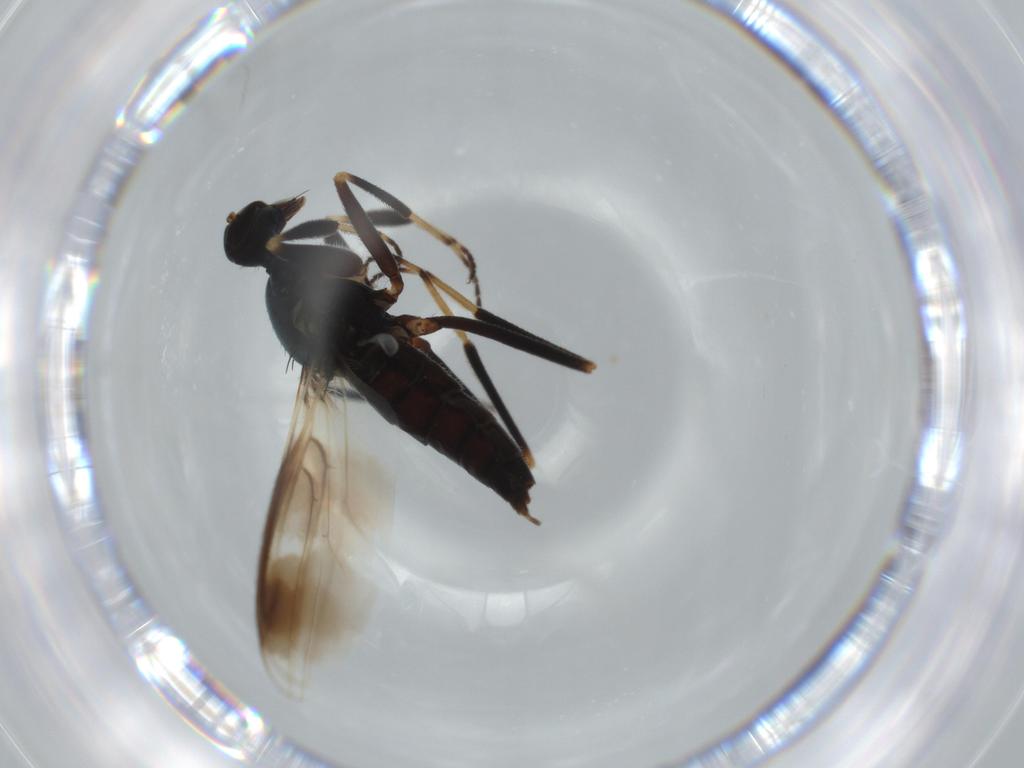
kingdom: Animalia
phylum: Arthropoda
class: Insecta
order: Diptera
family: Hybotidae
